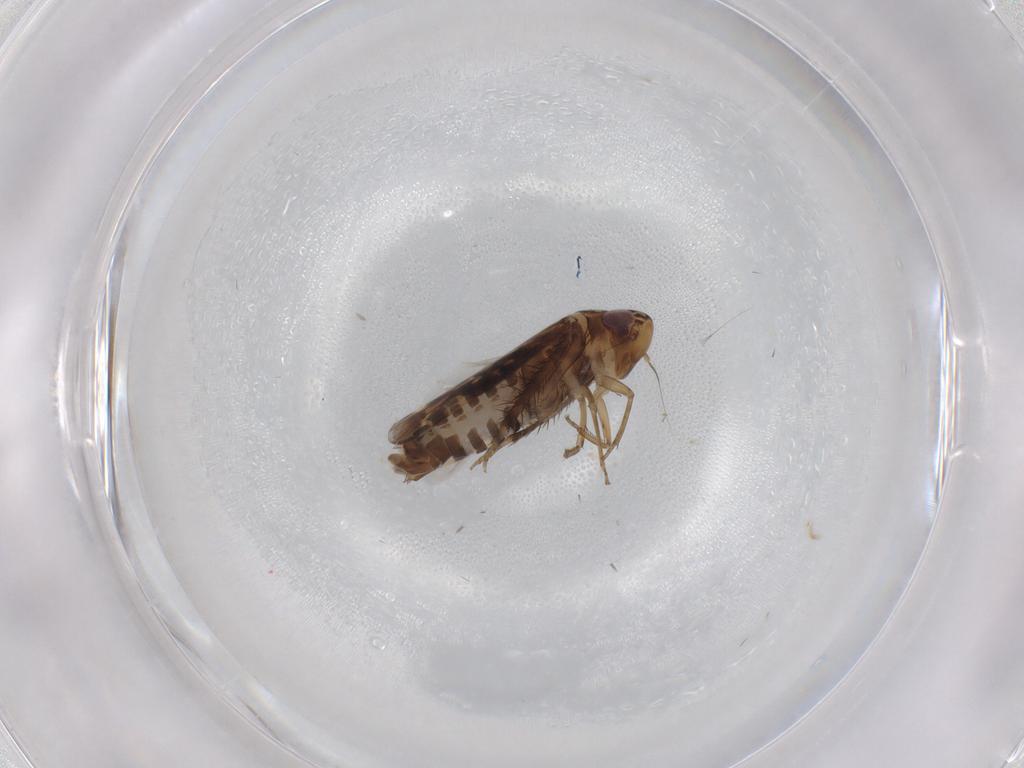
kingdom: Animalia
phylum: Arthropoda
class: Insecta
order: Hemiptera
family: Cicadellidae
